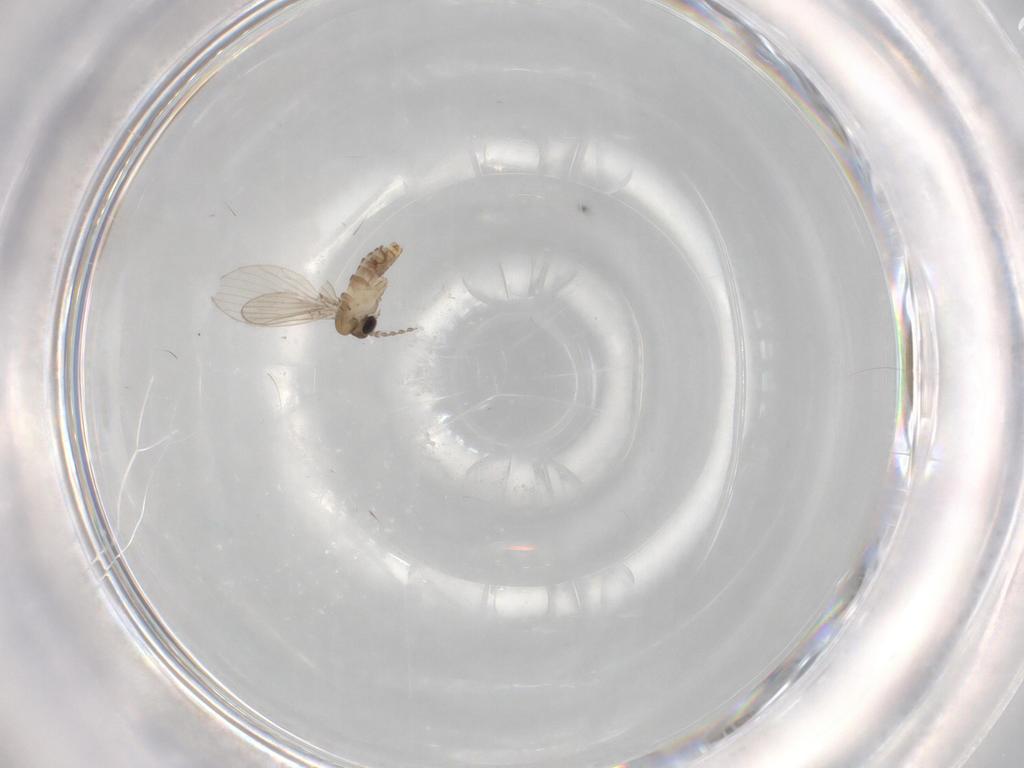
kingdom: Animalia
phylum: Arthropoda
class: Insecta
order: Diptera
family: Psychodidae
